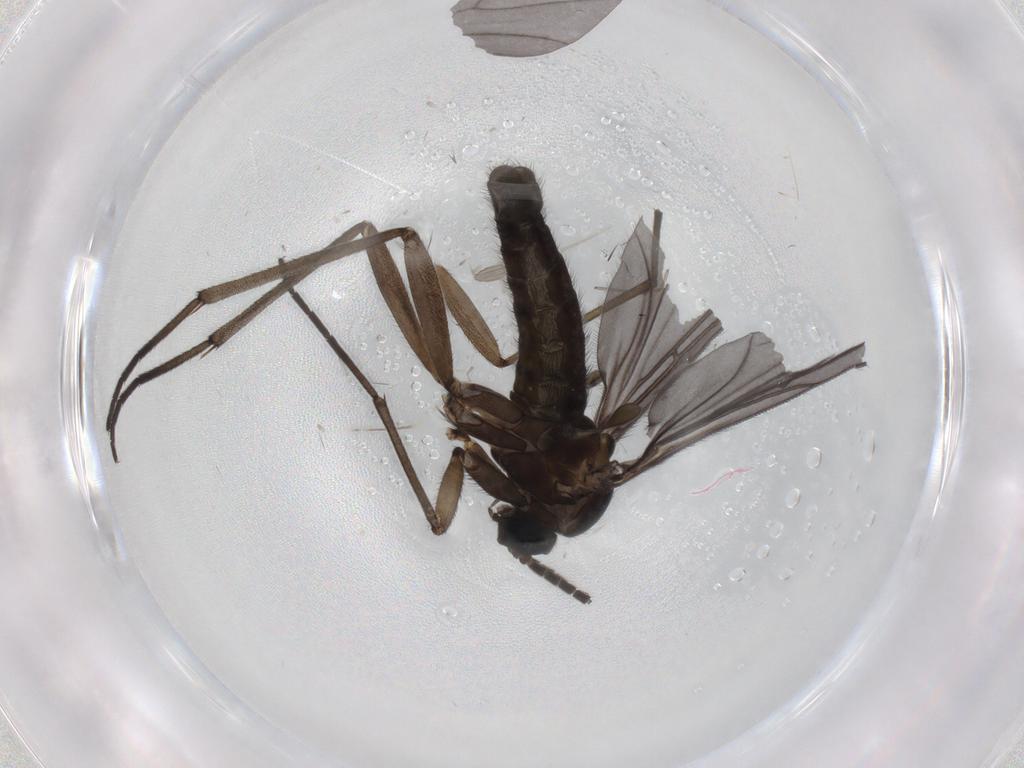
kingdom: Animalia
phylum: Arthropoda
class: Insecta
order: Diptera
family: Sciaridae
